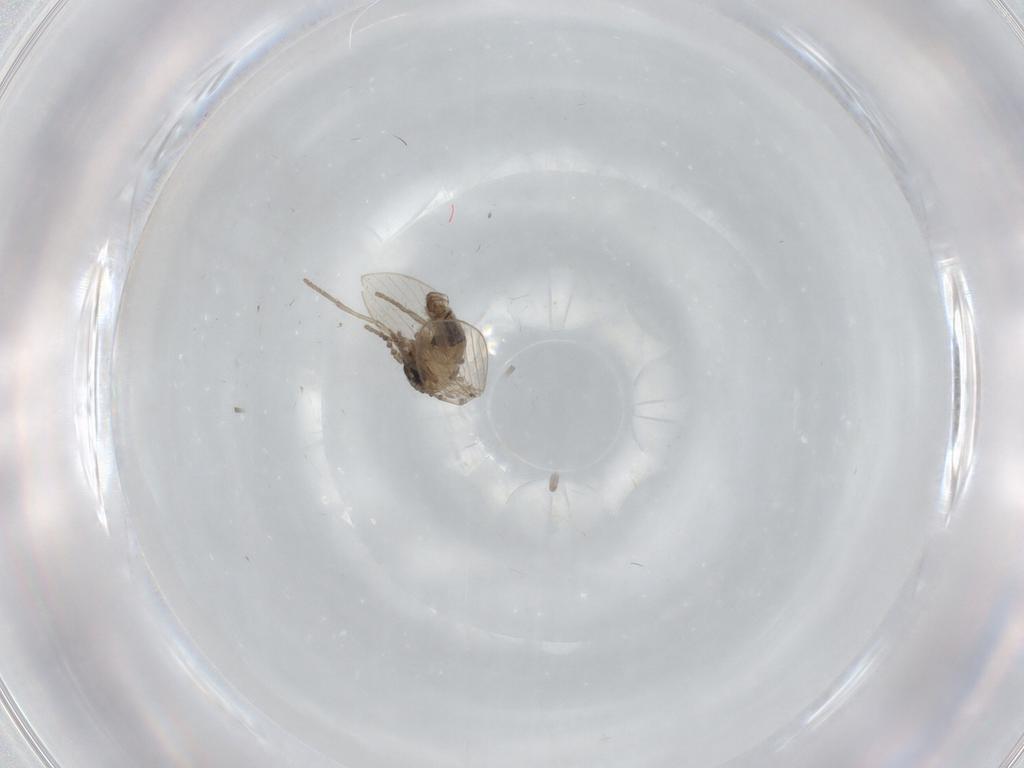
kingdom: Animalia
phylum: Arthropoda
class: Insecta
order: Diptera
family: Psychodidae
